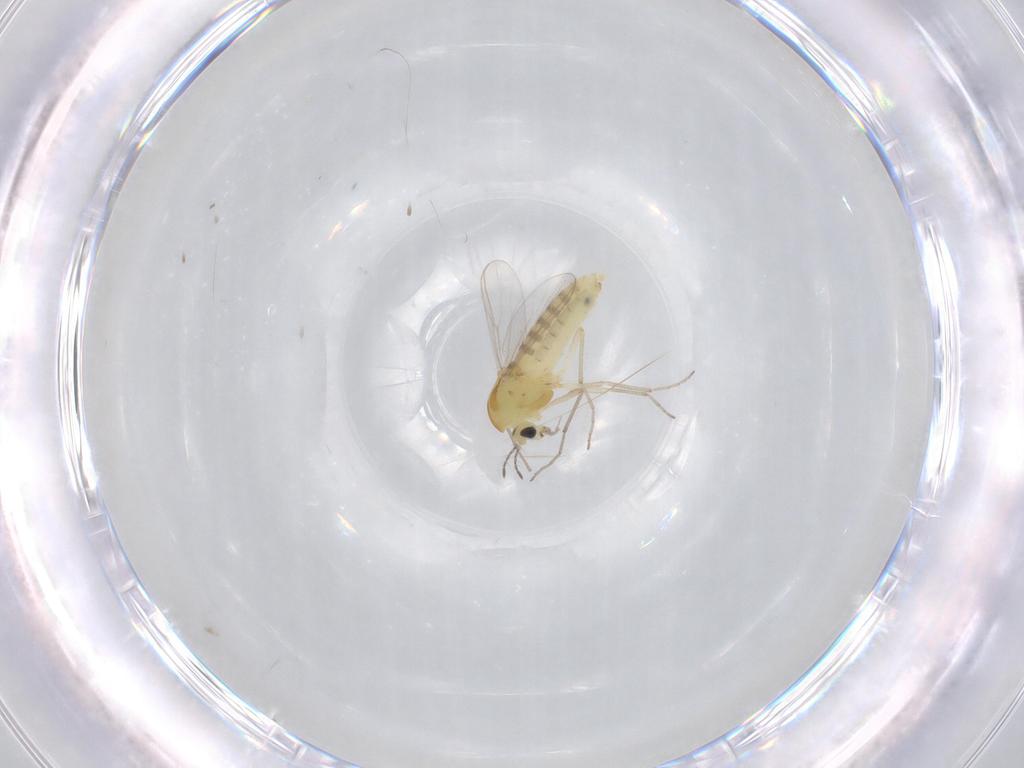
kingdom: Animalia
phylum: Arthropoda
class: Insecta
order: Diptera
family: Chironomidae
